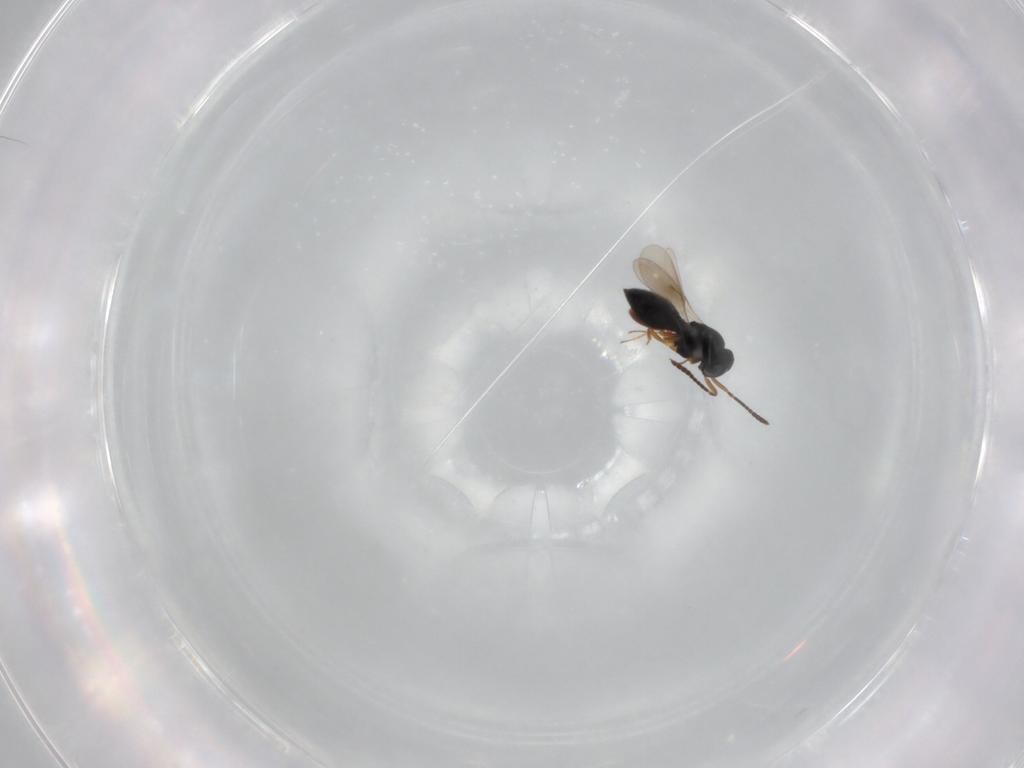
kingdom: Animalia
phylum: Arthropoda
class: Insecta
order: Hymenoptera
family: Scelionidae
